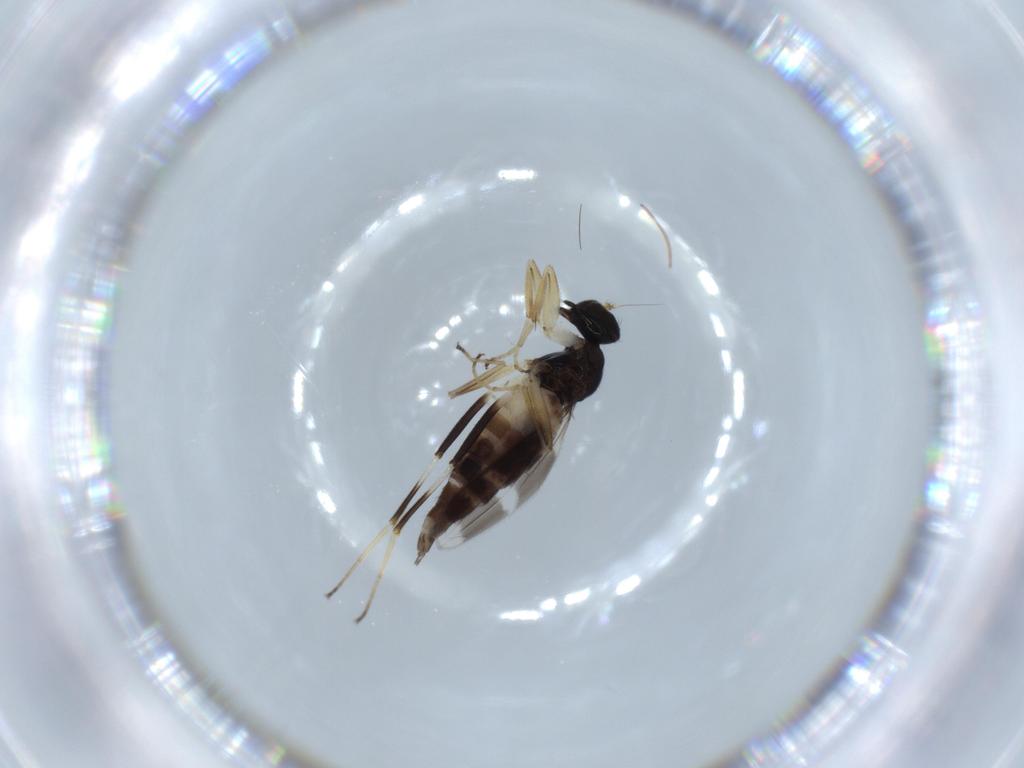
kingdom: Animalia
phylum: Arthropoda
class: Insecta
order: Diptera
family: Hybotidae
